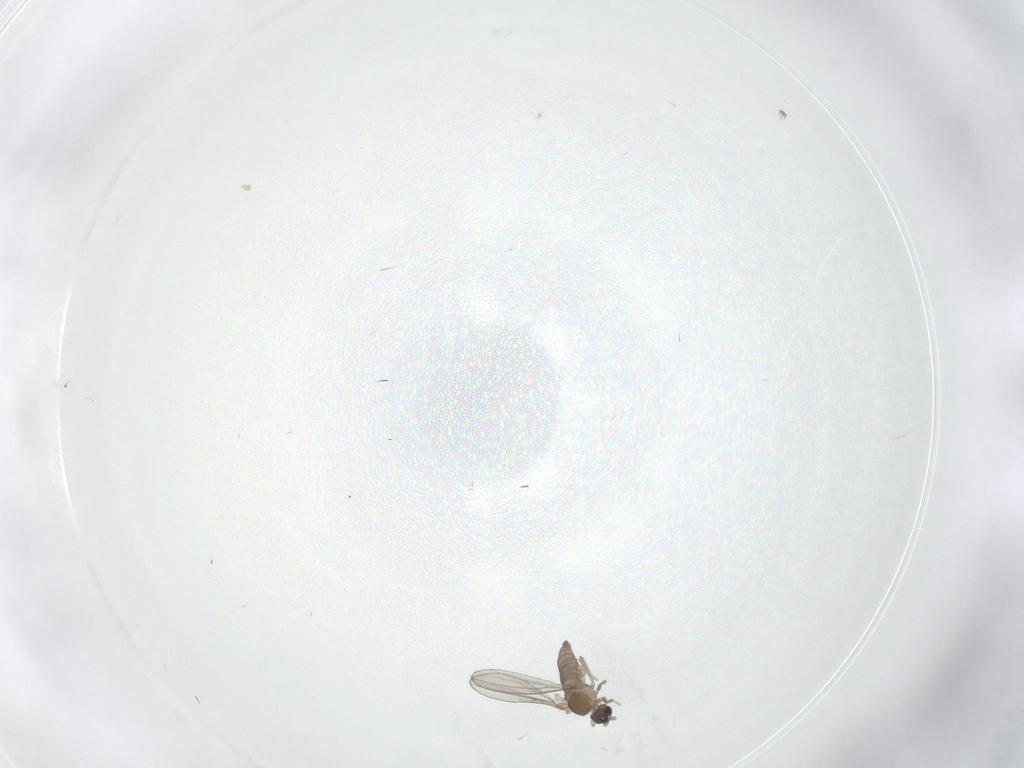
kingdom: Animalia
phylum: Arthropoda
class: Insecta
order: Diptera
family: Cecidomyiidae
